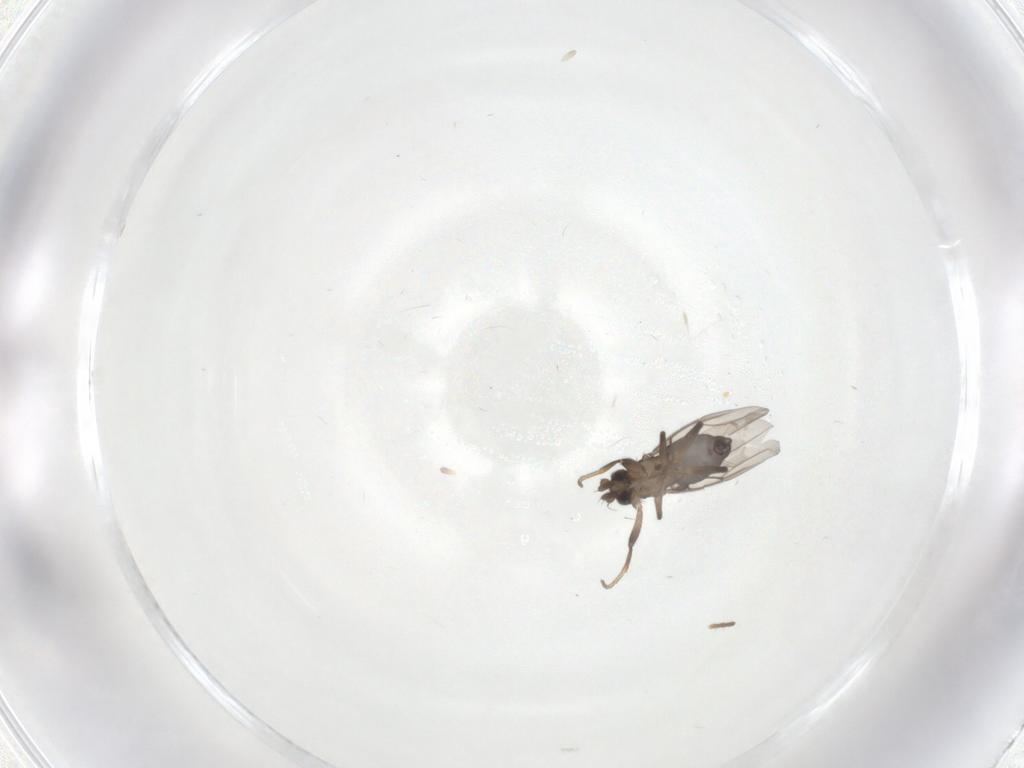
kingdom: Animalia
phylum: Arthropoda
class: Insecta
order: Diptera
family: Phoridae
